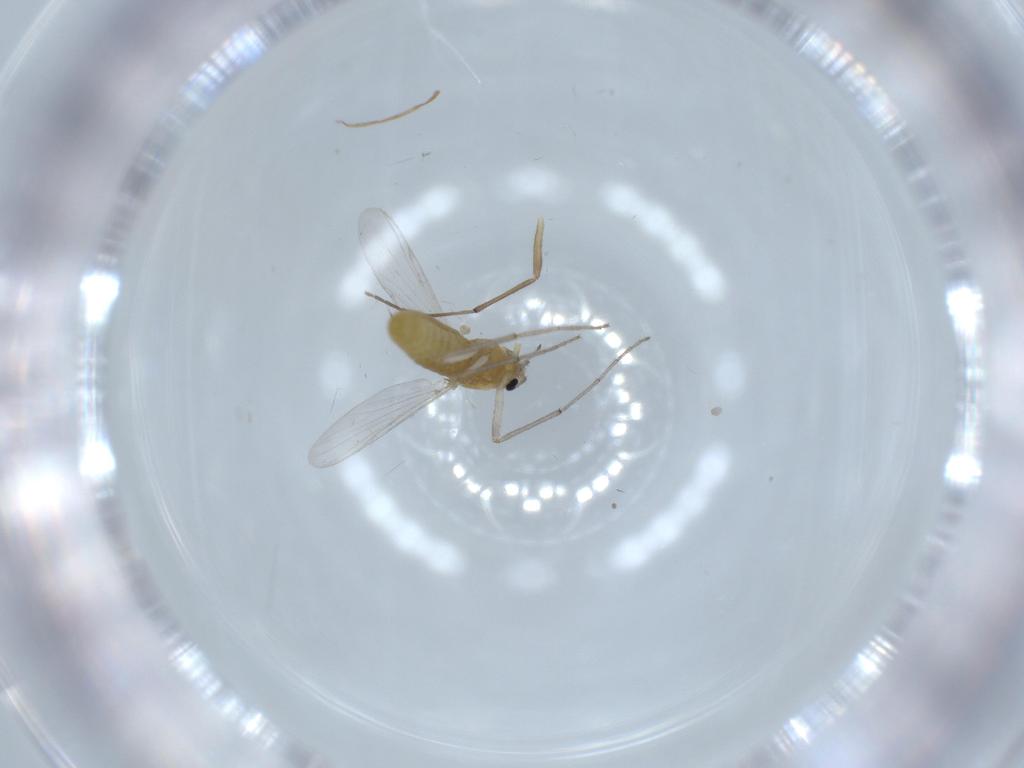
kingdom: Animalia
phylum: Arthropoda
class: Insecta
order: Diptera
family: Chironomidae
